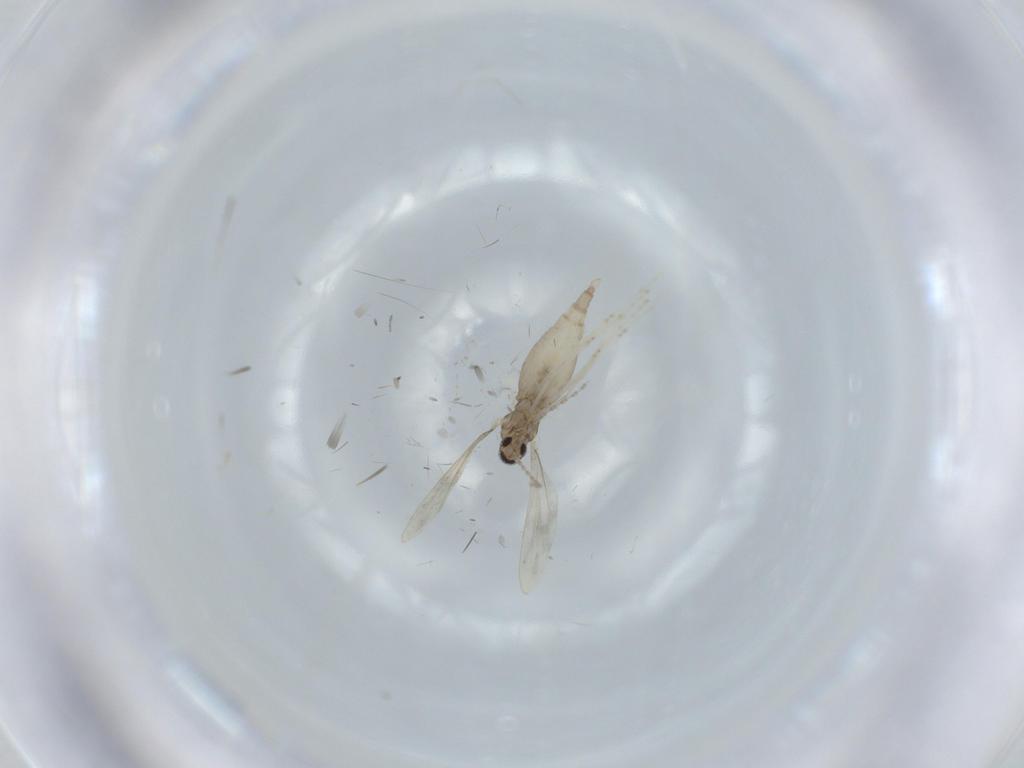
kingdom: Animalia
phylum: Arthropoda
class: Insecta
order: Diptera
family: Cecidomyiidae
